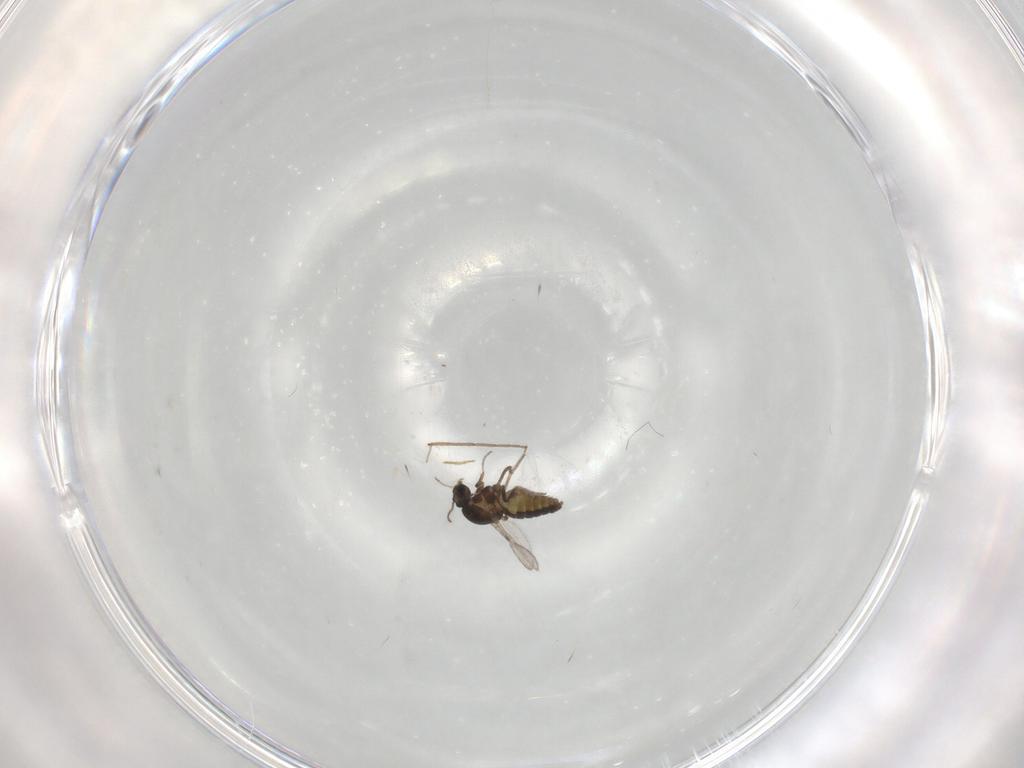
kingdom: Animalia
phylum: Arthropoda
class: Insecta
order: Diptera
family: Ceratopogonidae
